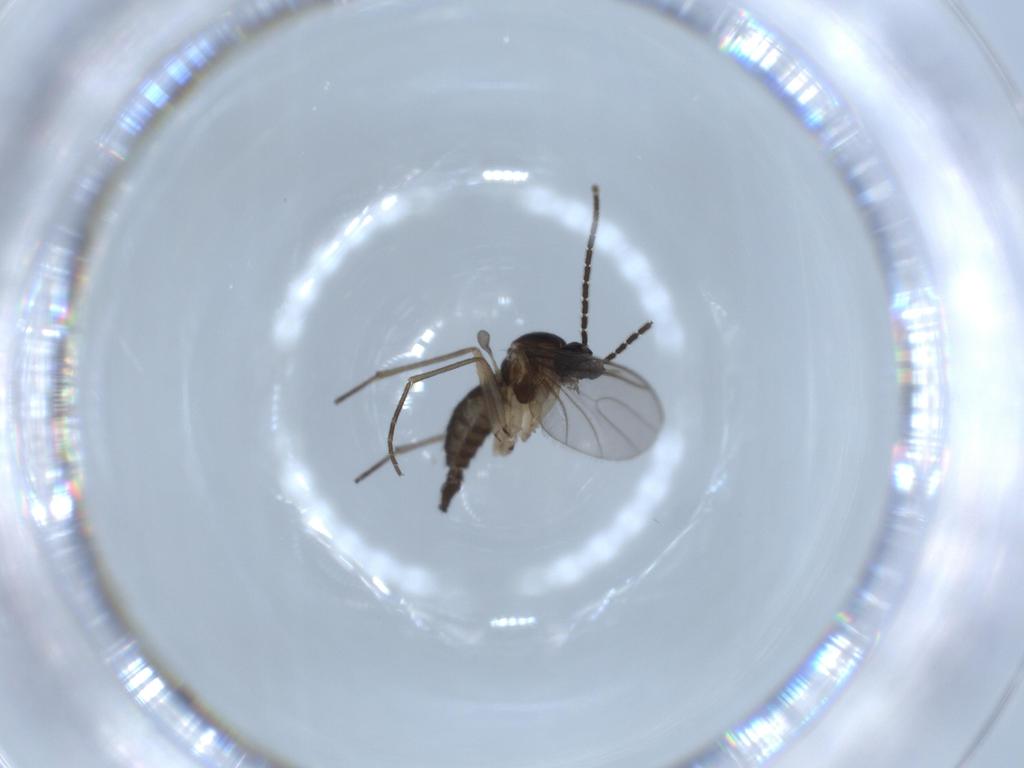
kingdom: Animalia
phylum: Arthropoda
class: Insecta
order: Diptera
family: Sciaridae
